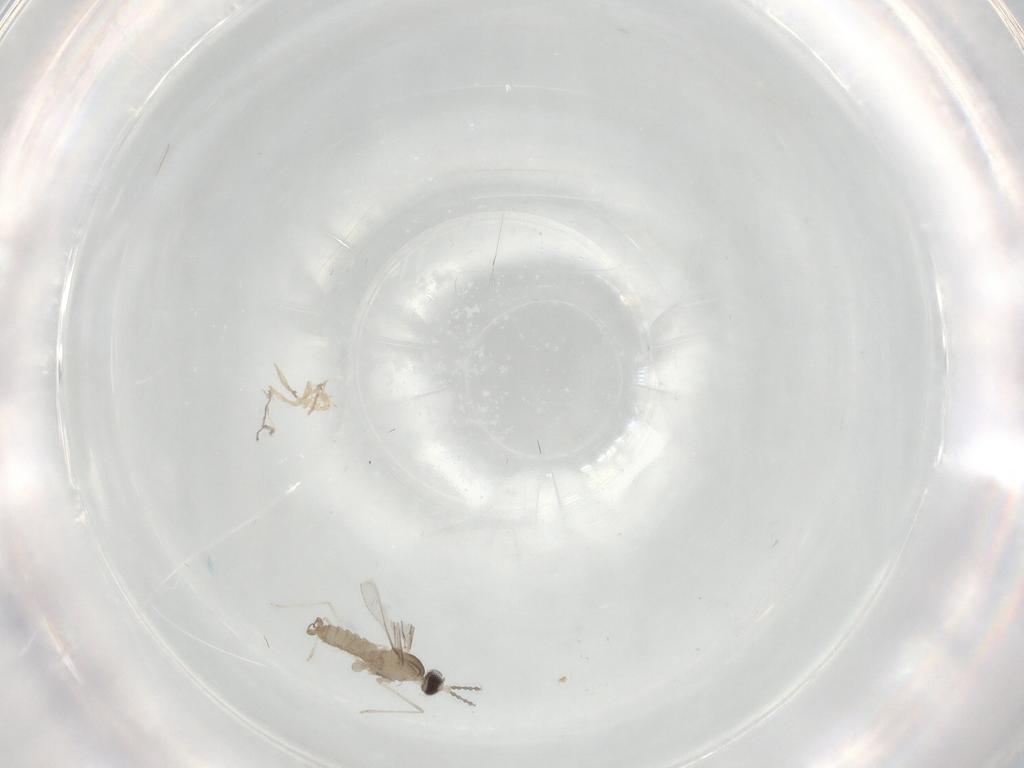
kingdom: Animalia
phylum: Arthropoda
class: Insecta
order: Diptera
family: Cecidomyiidae
